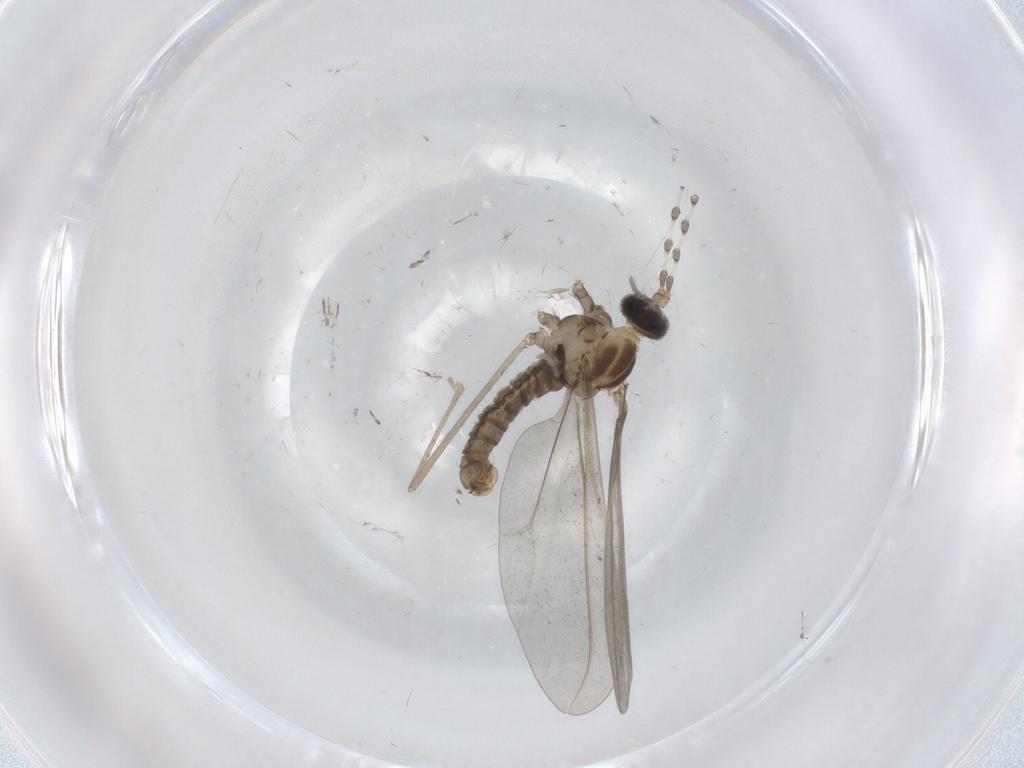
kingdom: Animalia
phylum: Arthropoda
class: Insecta
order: Diptera
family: Cecidomyiidae
